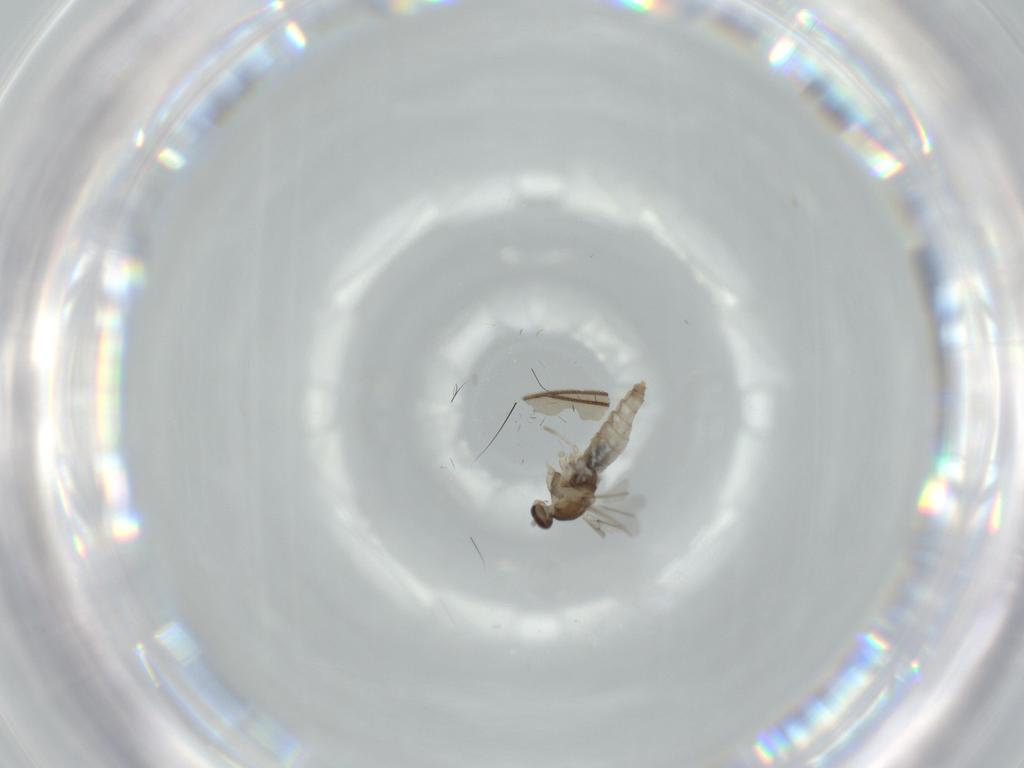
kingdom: Animalia
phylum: Arthropoda
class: Insecta
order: Diptera
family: Cecidomyiidae
